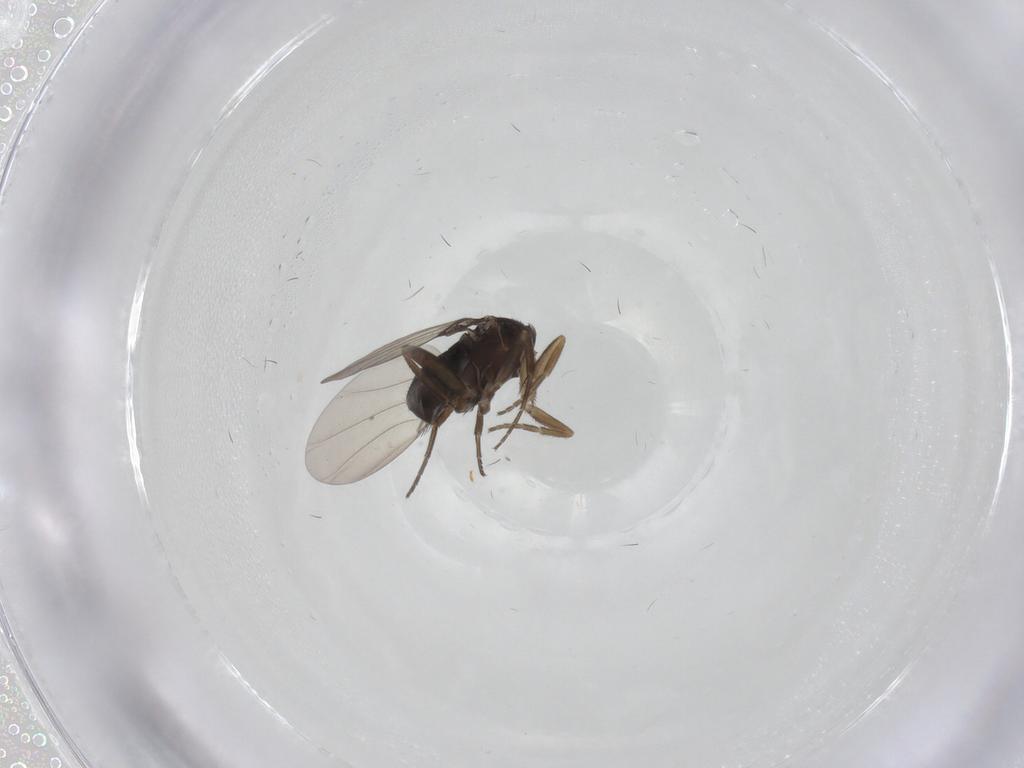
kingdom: Animalia
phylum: Arthropoda
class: Insecta
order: Diptera
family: Phoridae
